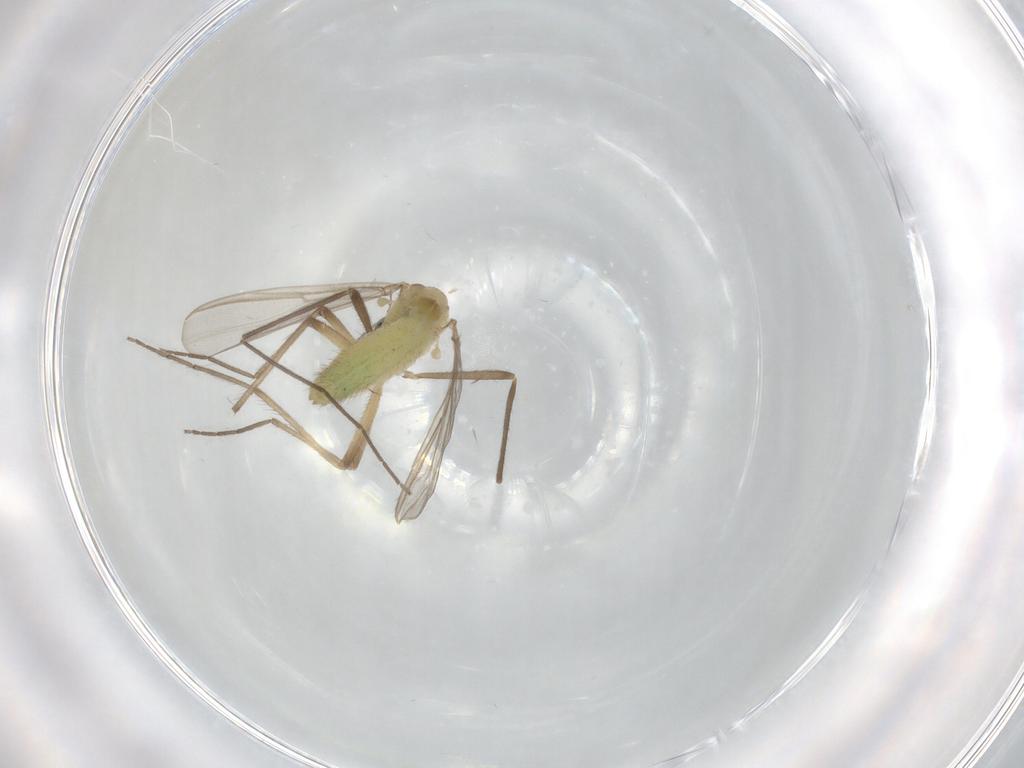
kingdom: Animalia
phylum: Arthropoda
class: Insecta
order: Diptera
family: Chironomidae
